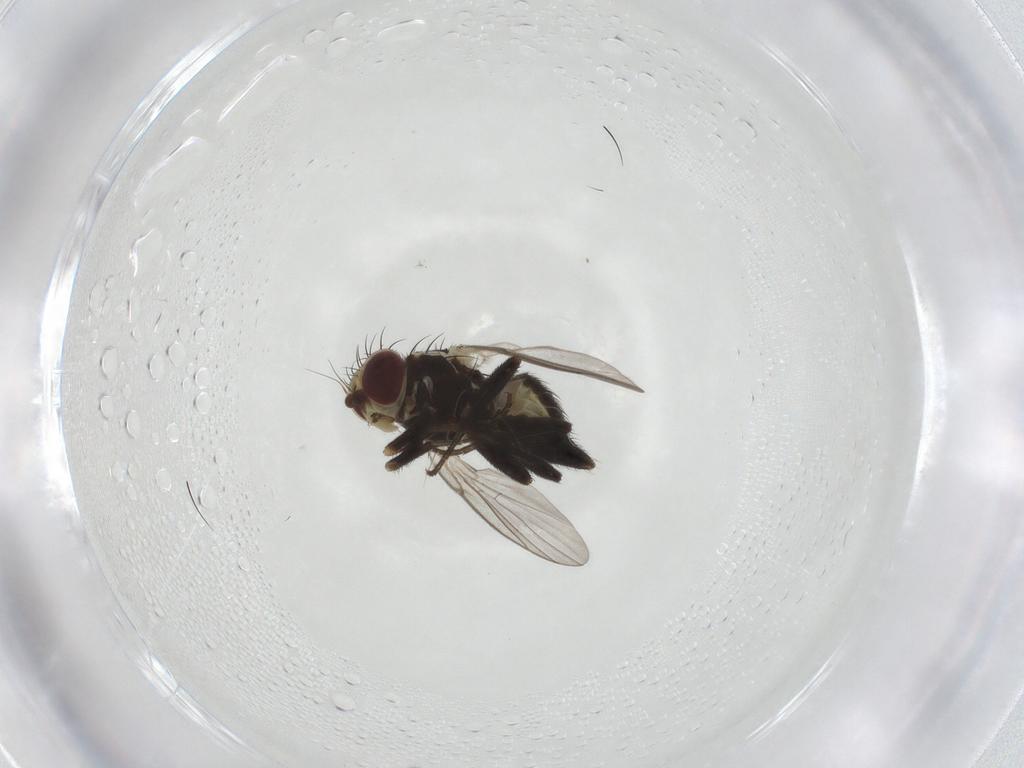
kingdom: Animalia
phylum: Arthropoda
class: Insecta
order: Diptera
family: Agromyzidae
